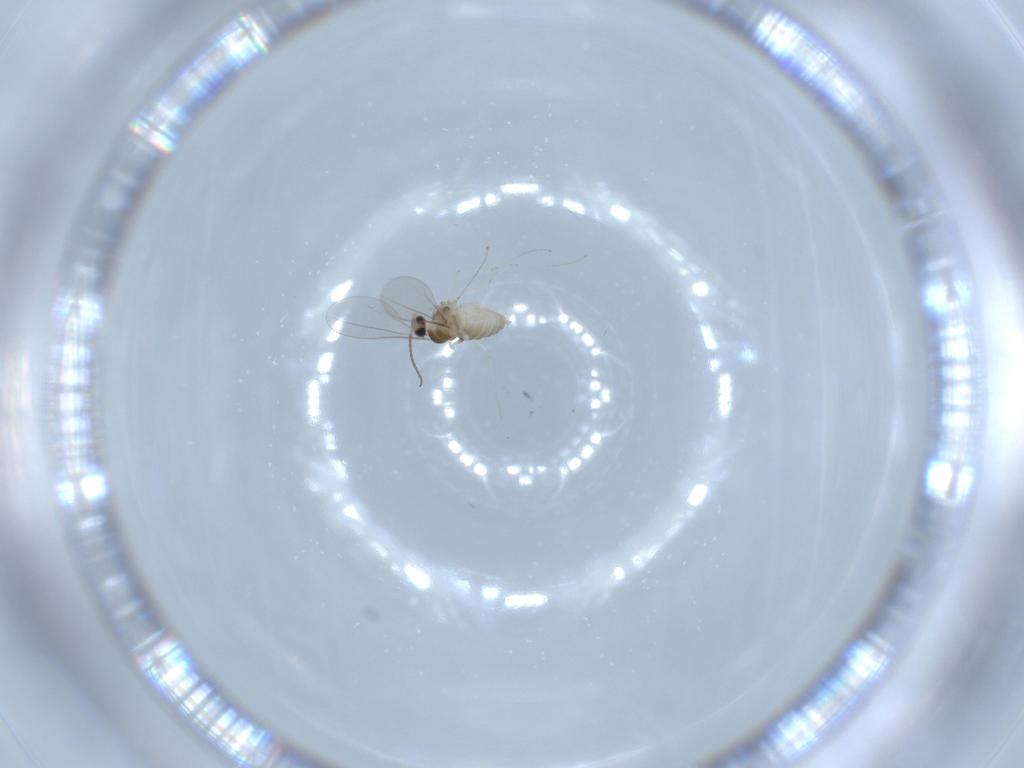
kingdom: Animalia
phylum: Arthropoda
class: Insecta
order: Diptera
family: Cecidomyiidae
